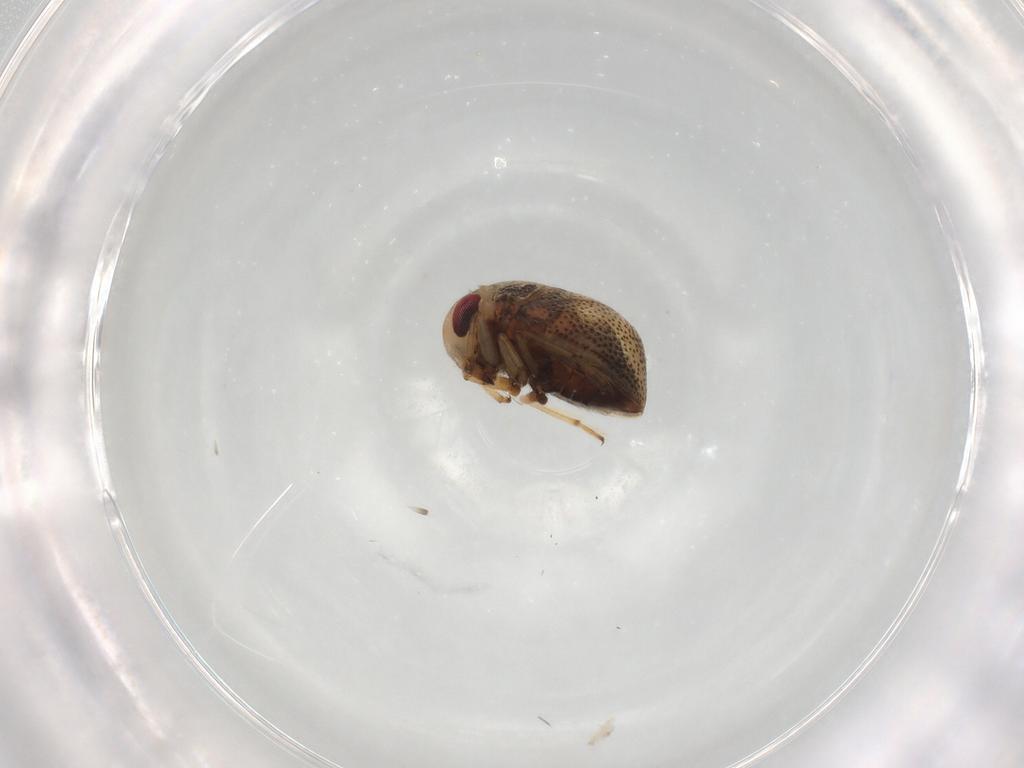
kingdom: Animalia
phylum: Arthropoda
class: Insecta
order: Hemiptera
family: Pleidae
